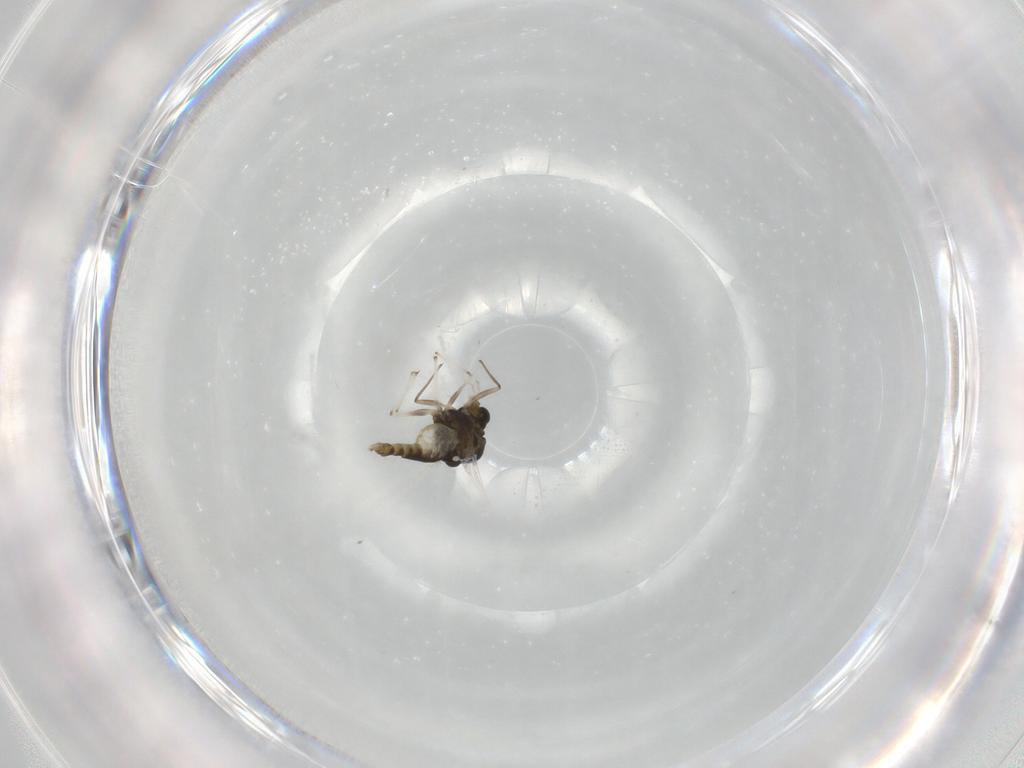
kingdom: Animalia
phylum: Arthropoda
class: Insecta
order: Diptera
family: Chironomidae
